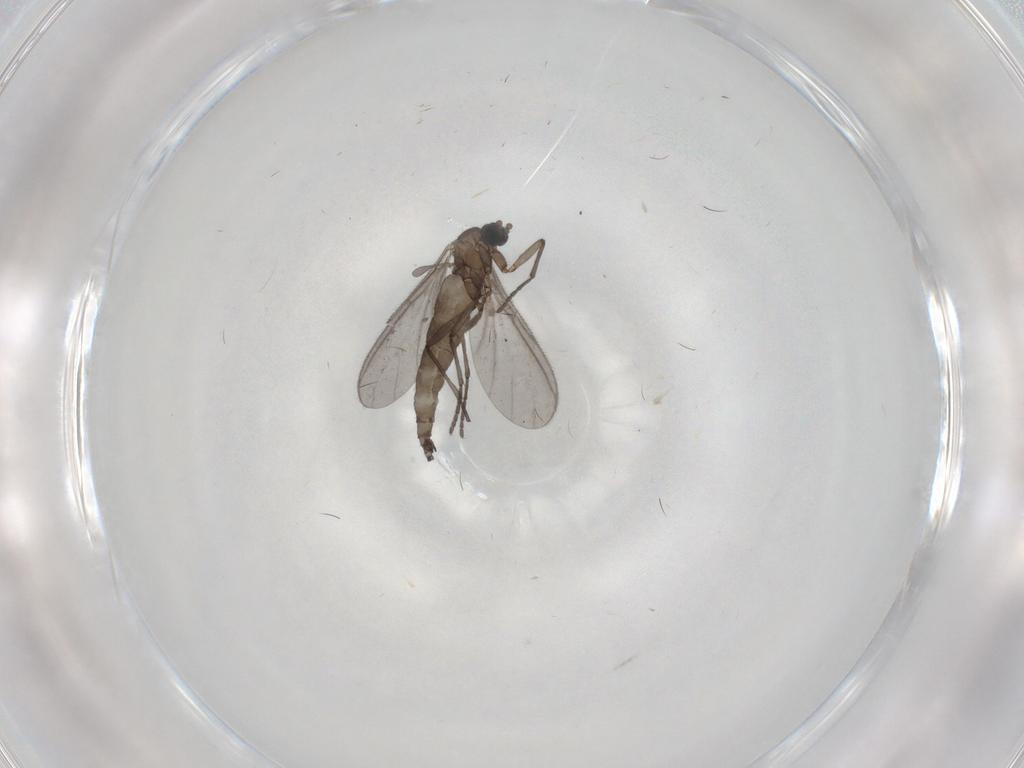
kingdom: Animalia
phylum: Arthropoda
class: Insecta
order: Diptera
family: Sciaridae
